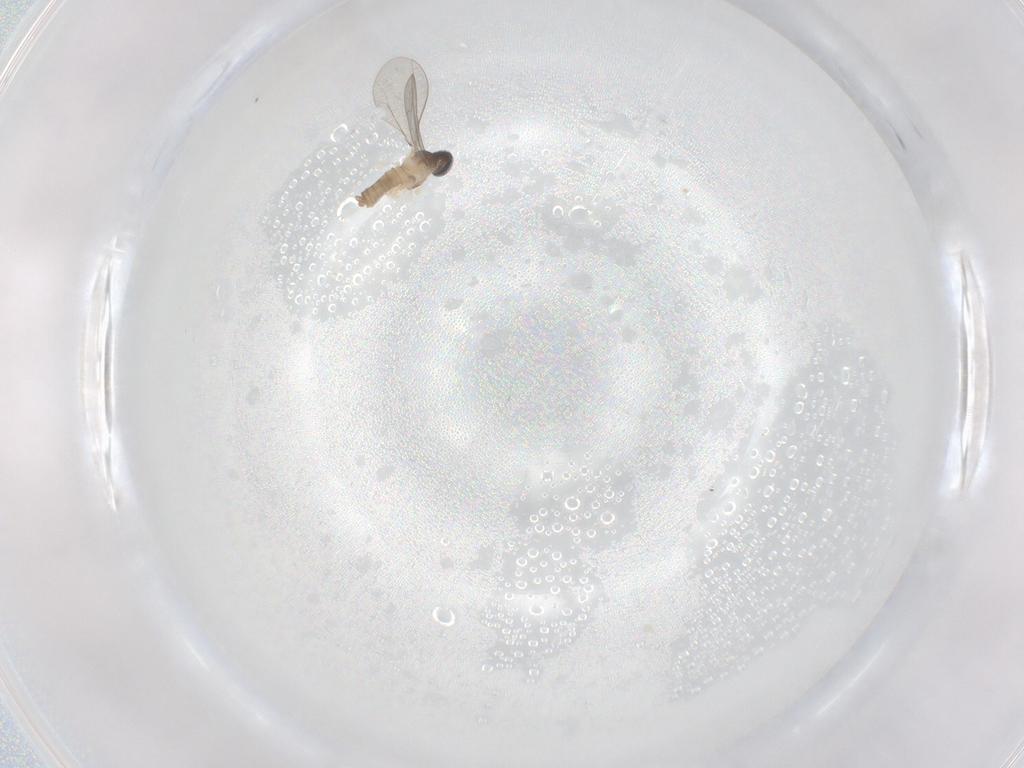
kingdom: Animalia
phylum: Arthropoda
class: Insecta
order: Diptera
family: Cecidomyiidae
